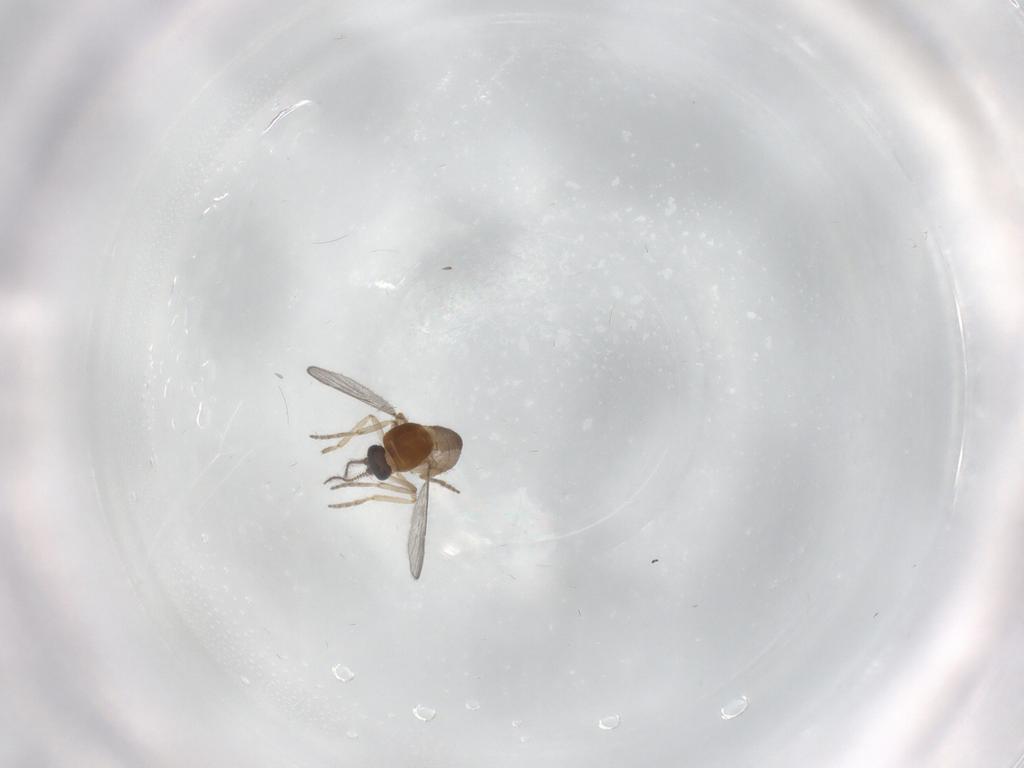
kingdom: Animalia
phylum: Arthropoda
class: Insecta
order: Diptera
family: Ceratopogonidae
